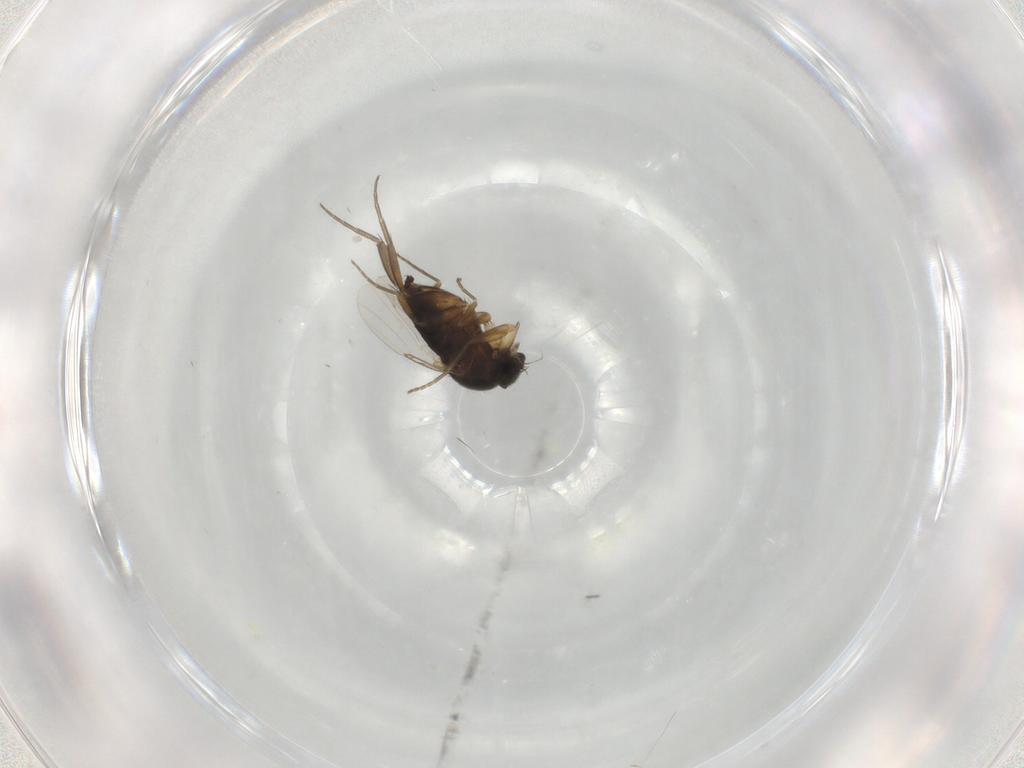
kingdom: Animalia
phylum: Arthropoda
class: Insecta
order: Diptera
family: Phoridae
